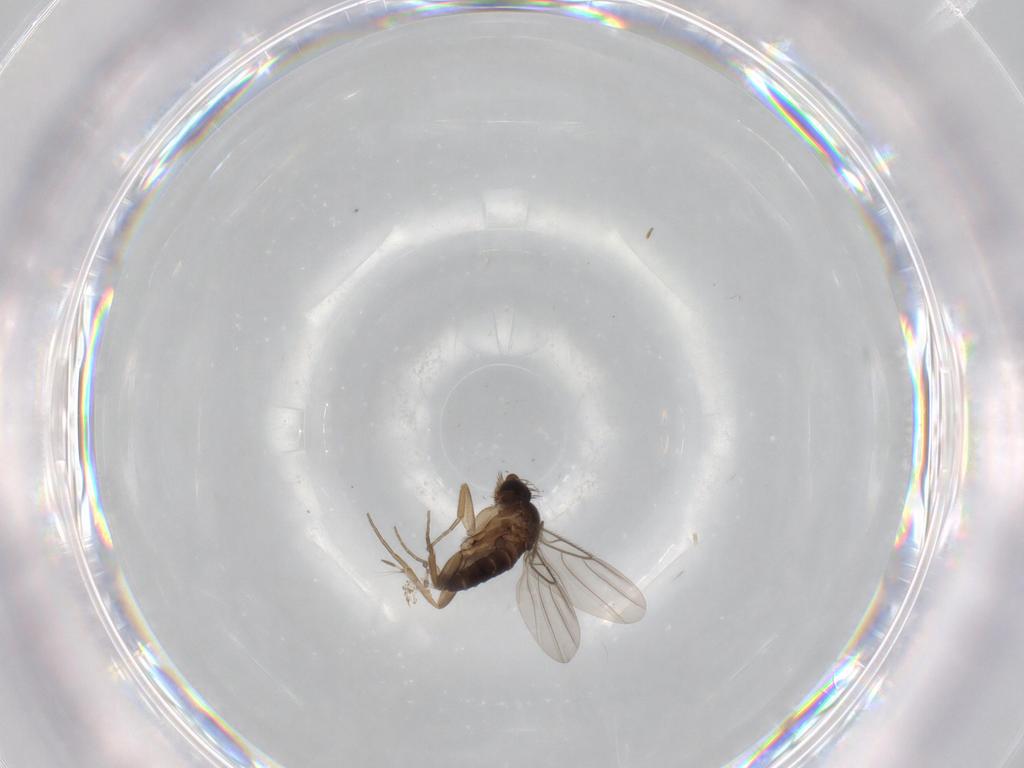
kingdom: Animalia
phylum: Arthropoda
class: Insecta
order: Diptera
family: Phoridae
